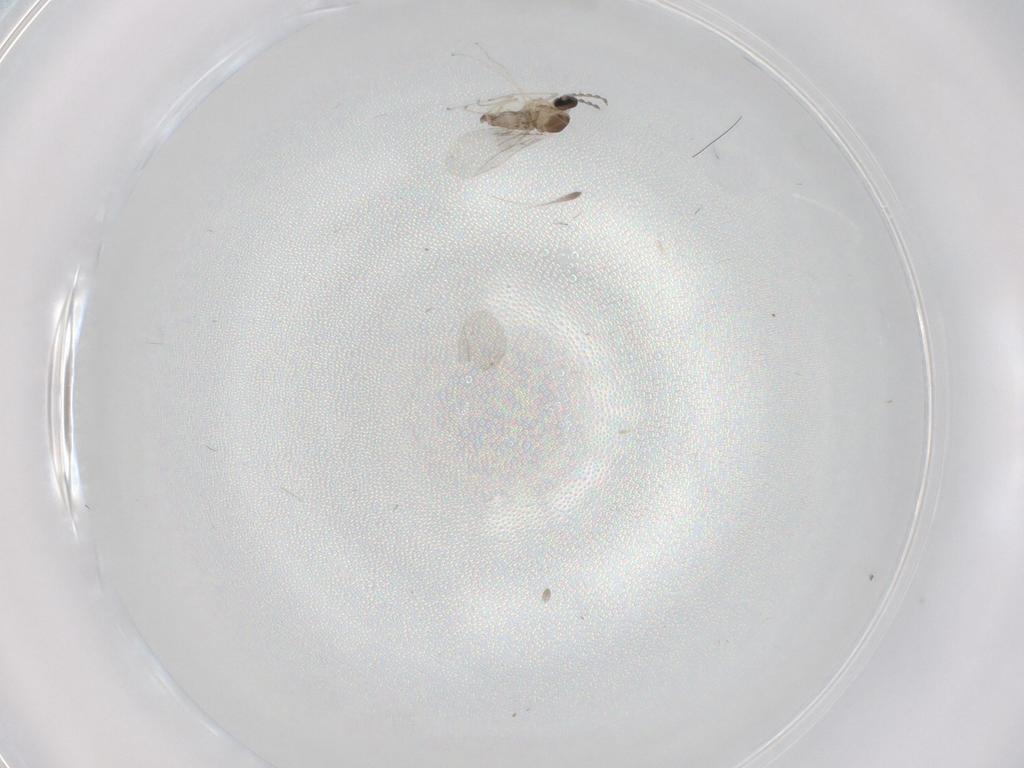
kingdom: Animalia
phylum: Arthropoda
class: Insecta
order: Diptera
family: Cecidomyiidae
